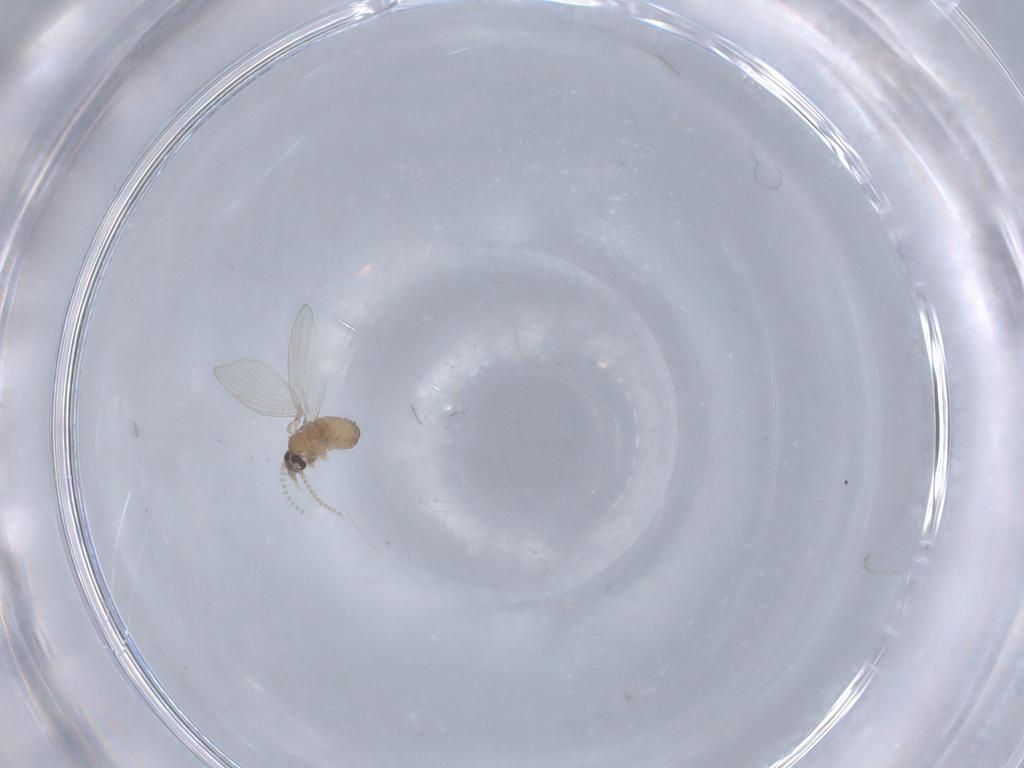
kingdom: Animalia
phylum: Arthropoda
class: Insecta
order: Diptera
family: Psychodidae
